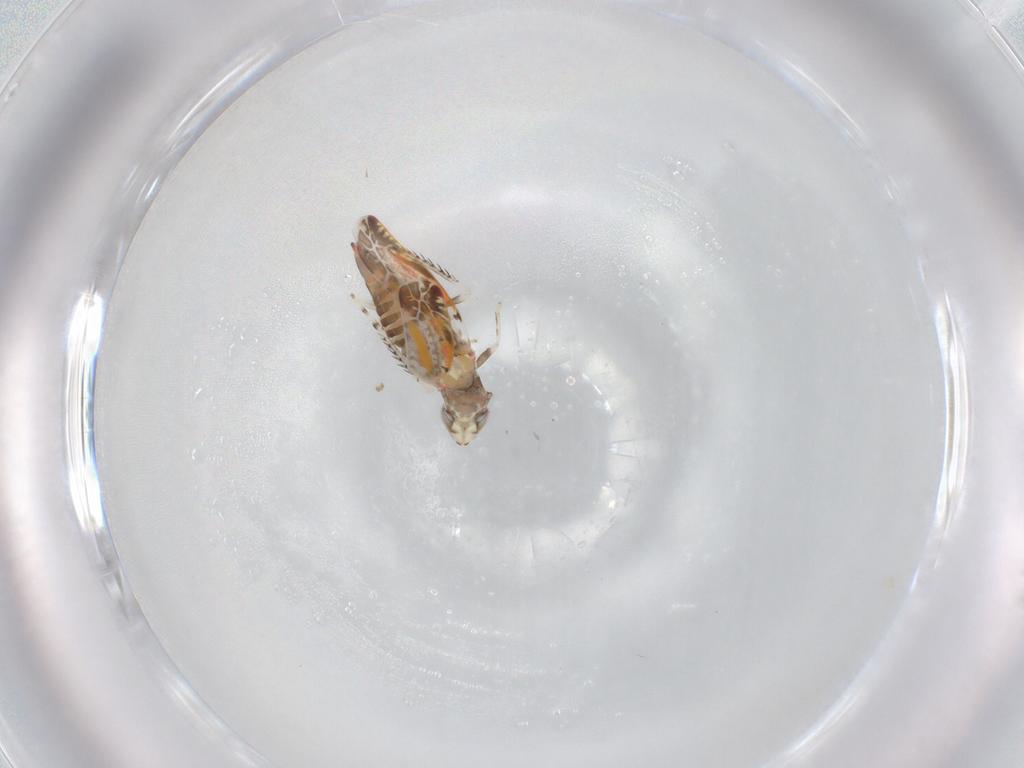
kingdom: Animalia
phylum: Arthropoda
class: Insecta
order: Hemiptera
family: Cicadellidae
